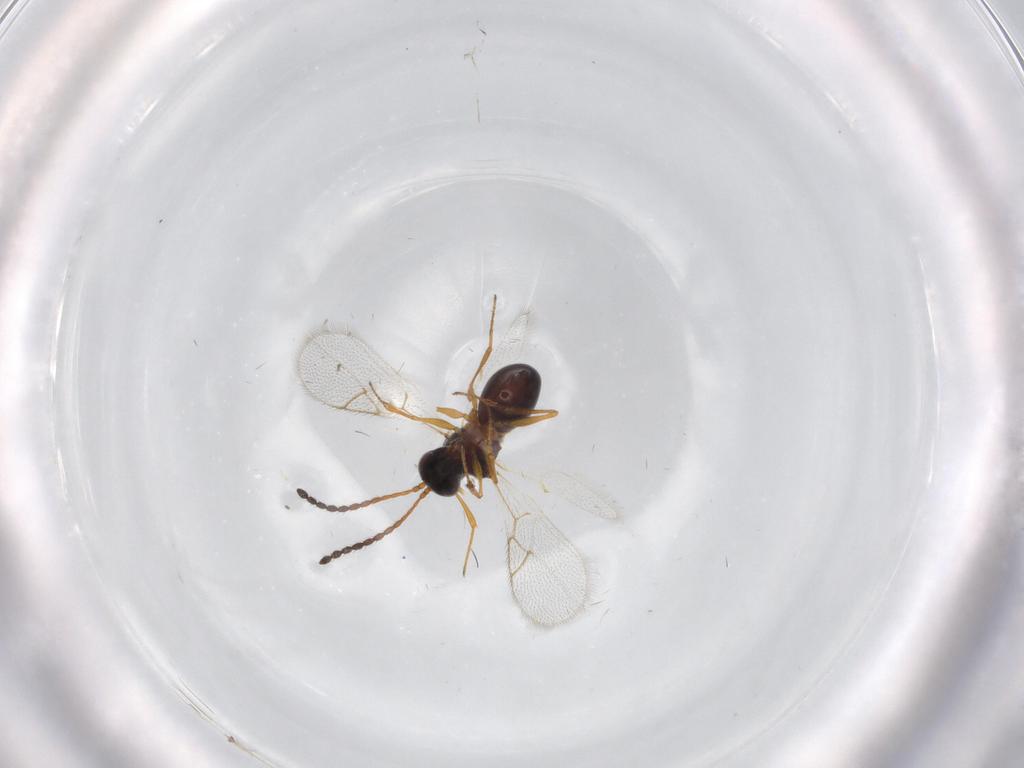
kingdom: Animalia
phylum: Arthropoda
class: Insecta
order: Hymenoptera
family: Figitidae
